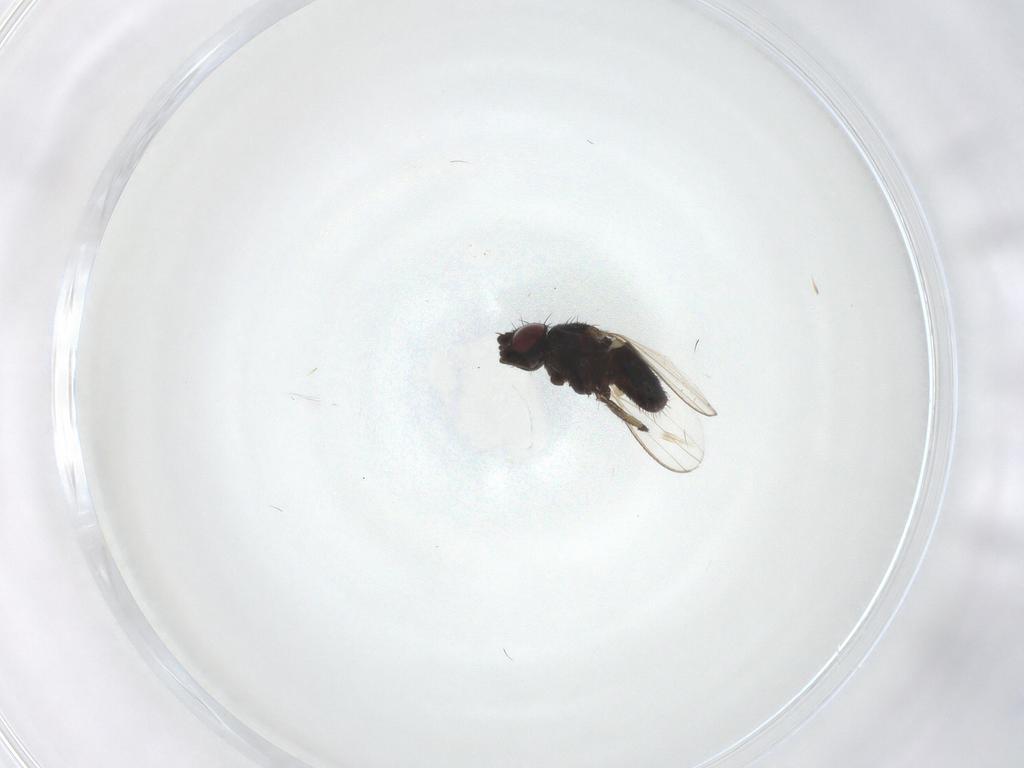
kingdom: Animalia
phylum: Arthropoda
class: Insecta
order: Diptera
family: Milichiidae
